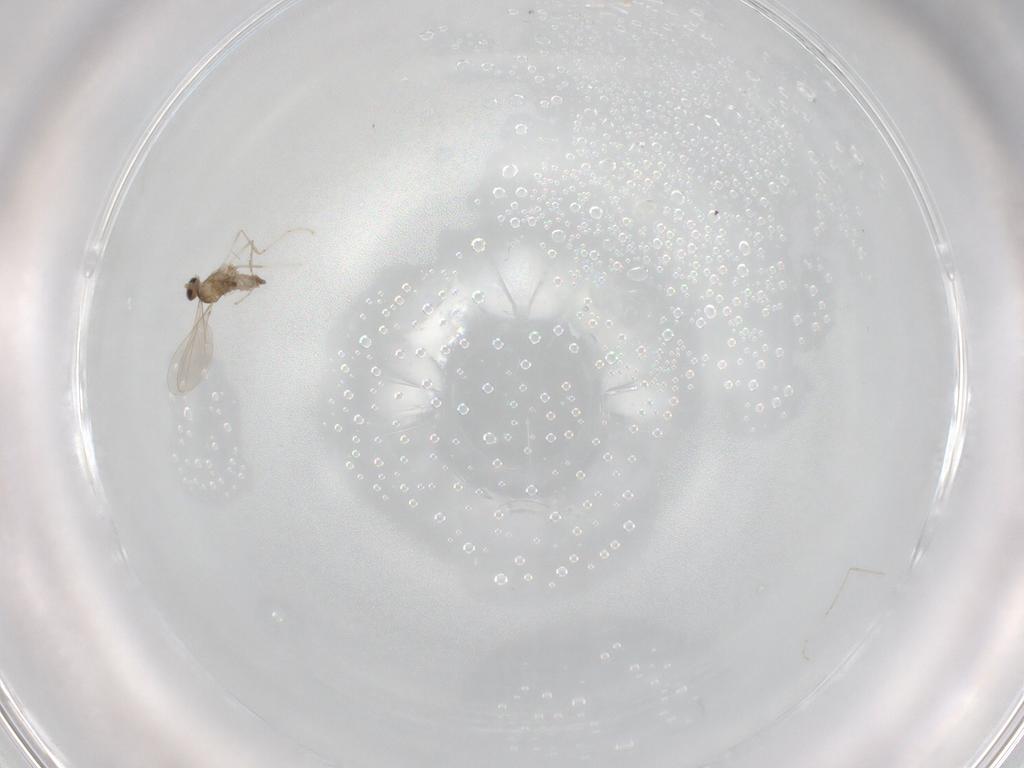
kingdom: Animalia
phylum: Arthropoda
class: Insecta
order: Diptera
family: Cecidomyiidae
